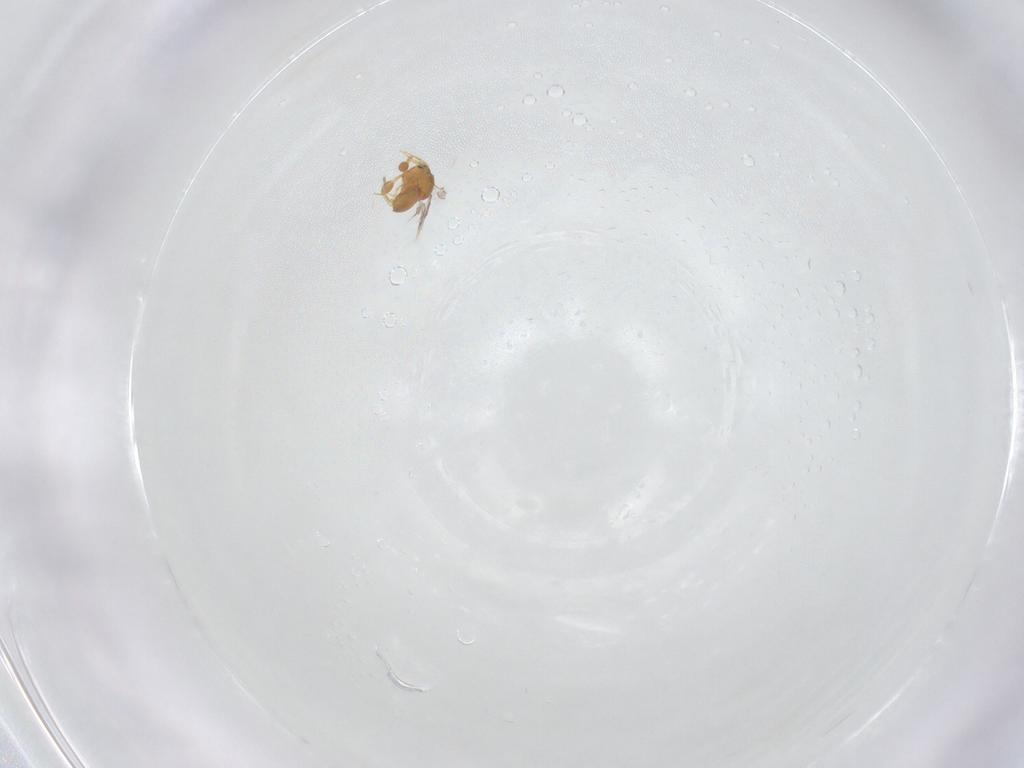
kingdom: Animalia
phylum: Arthropoda
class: Insecta
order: Hymenoptera
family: Scelionidae
